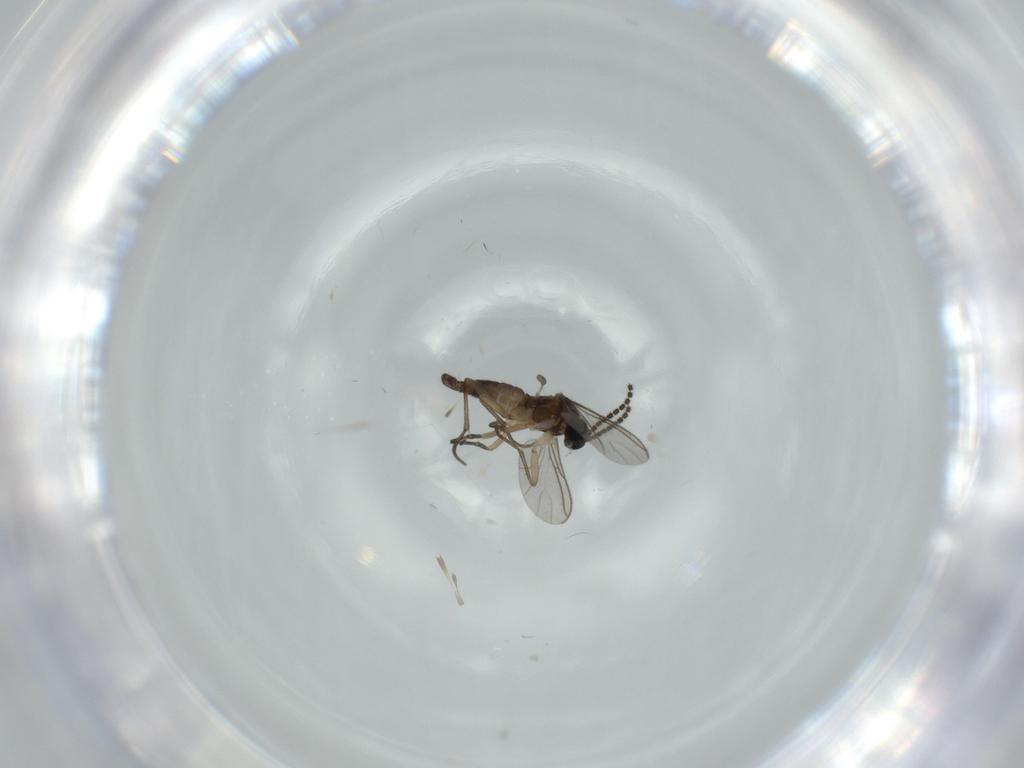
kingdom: Animalia
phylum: Arthropoda
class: Insecta
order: Diptera
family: Sciaridae
